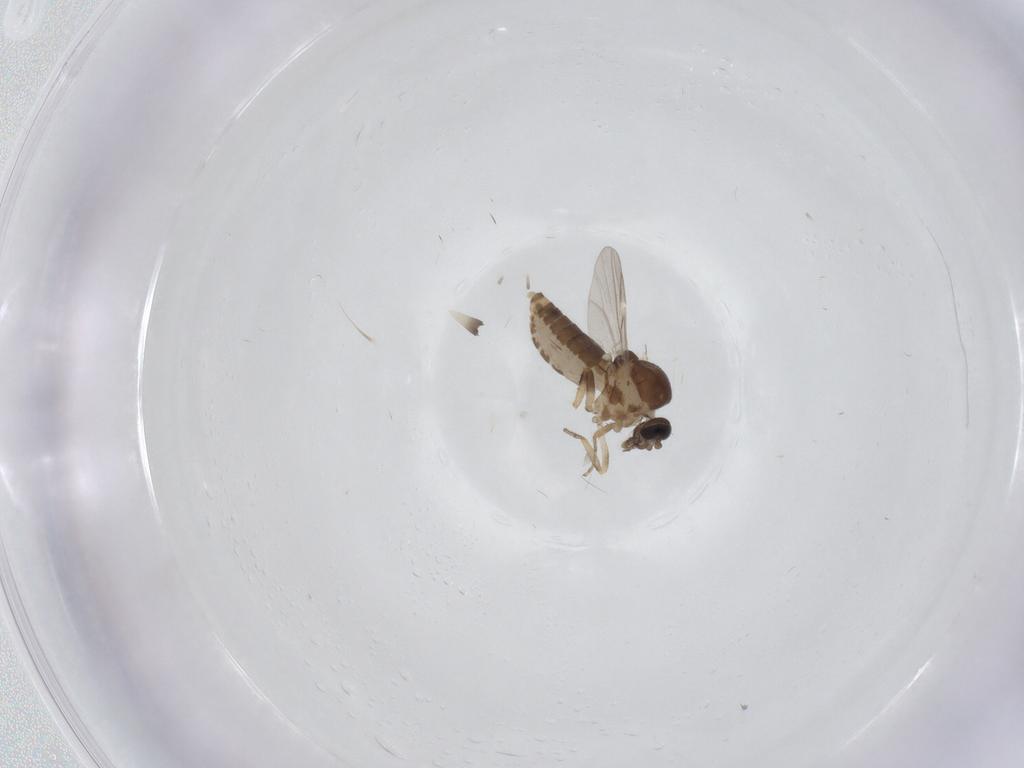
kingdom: Animalia
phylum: Arthropoda
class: Insecta
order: Diptera
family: Ceratopogonidae
